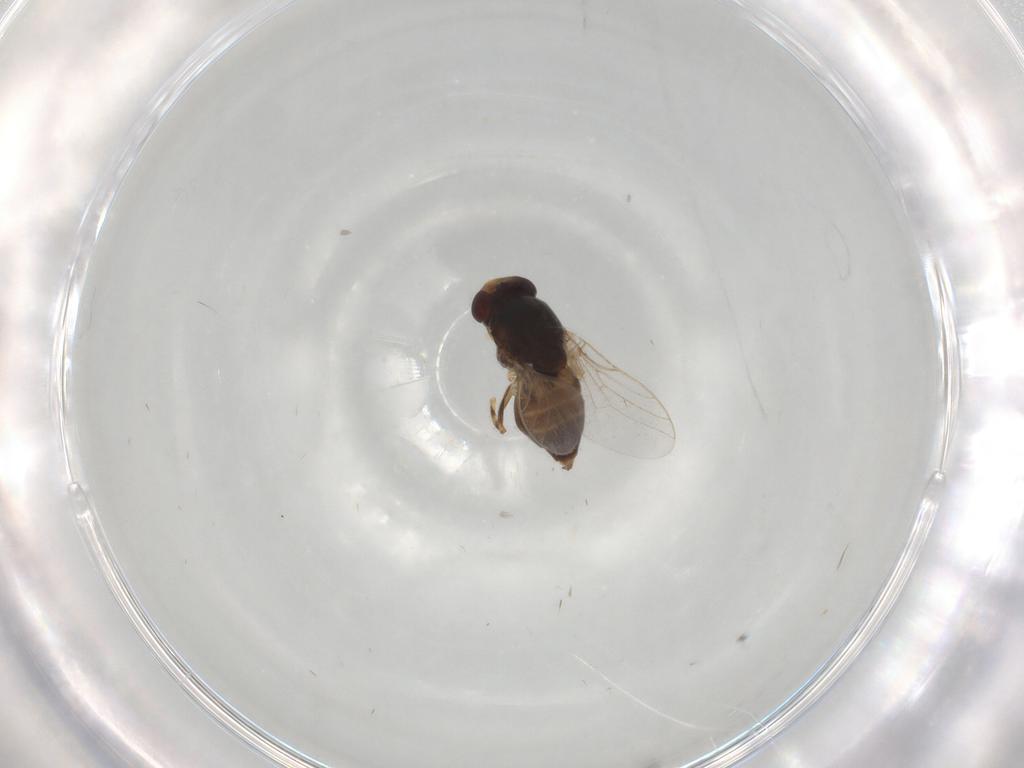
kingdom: Animalia
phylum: Arthropoda
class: Insecta
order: Diptera
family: Chloropidae
